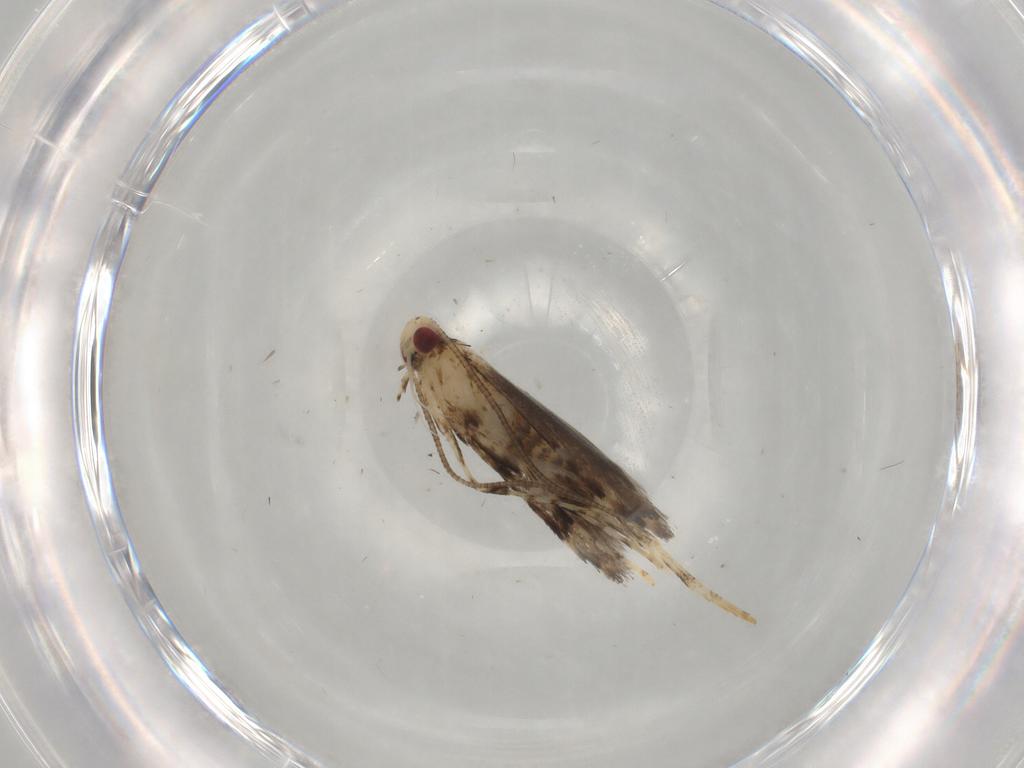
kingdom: Animalia
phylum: Arthropoda
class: Insecta
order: Lepidoptera
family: Gracillariidae
